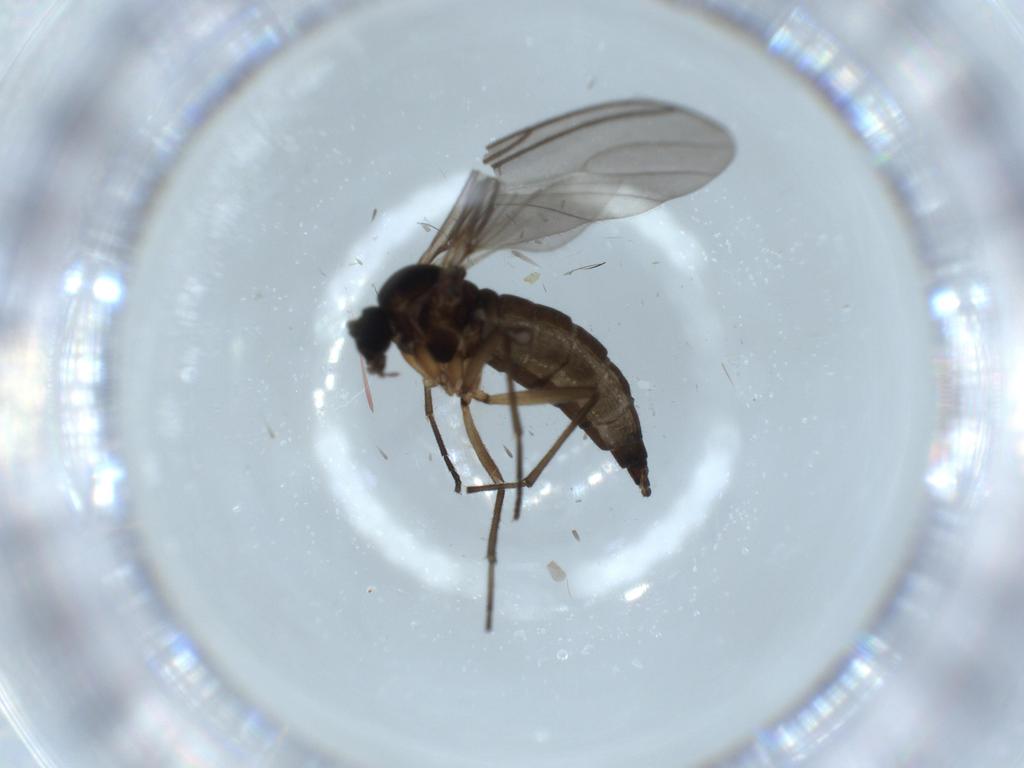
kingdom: Animalia
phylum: Arthropoda
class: Insecta
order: Diptera
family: Sciaridae
